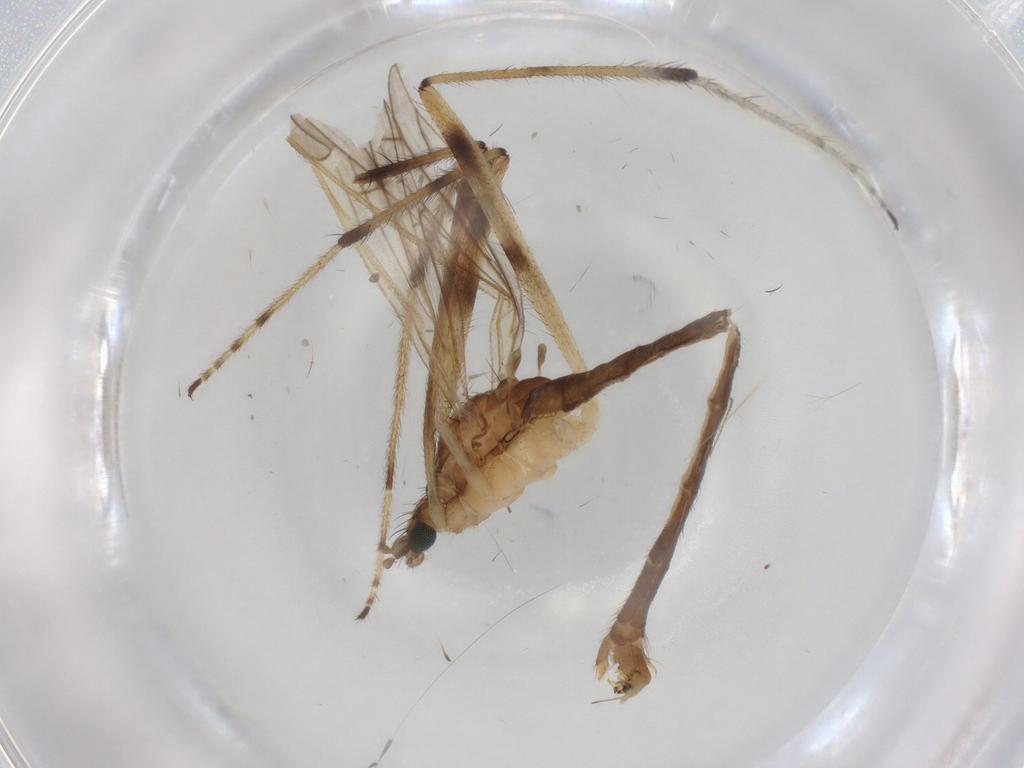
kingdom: Animalia
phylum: Arthropoda
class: Insecta
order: Diptera
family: Limoniidae
